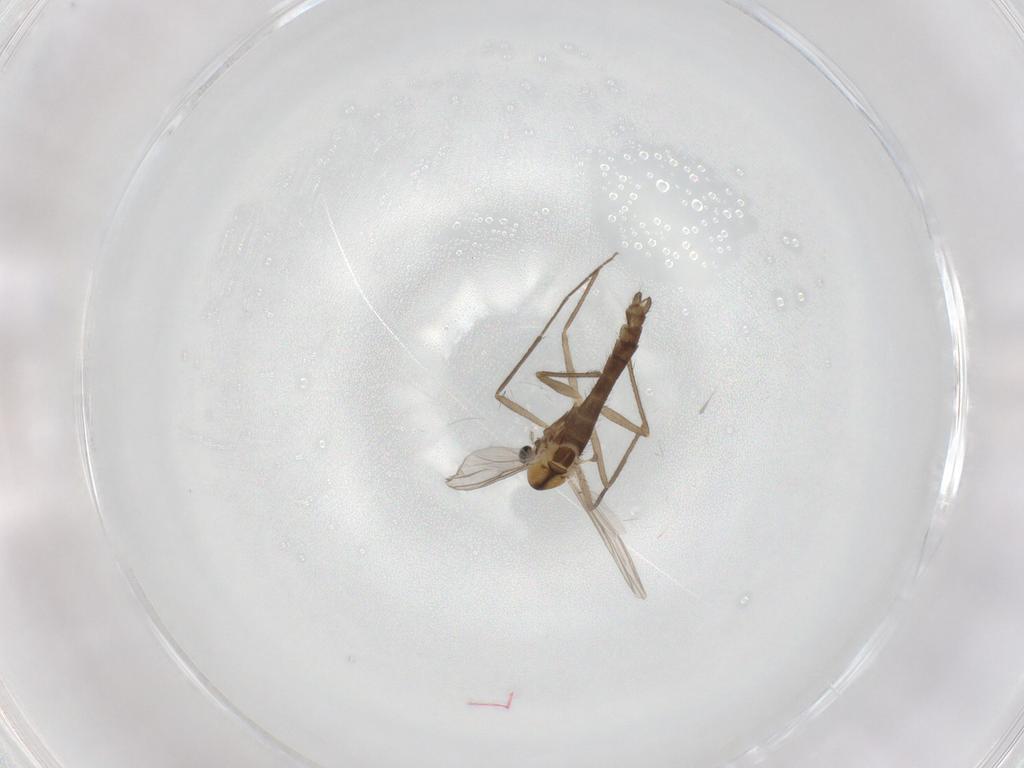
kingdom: Animalia
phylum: Arthropoda
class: Insecta
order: Diptera
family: Chironomidae
